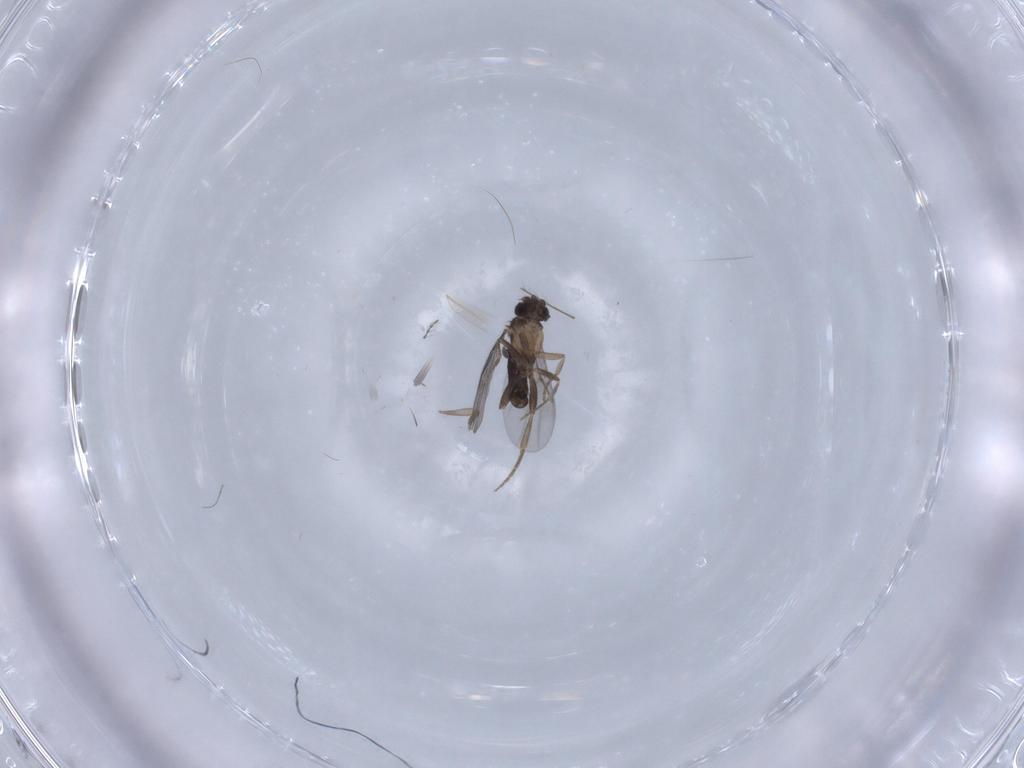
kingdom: Animalia
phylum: Arthropoda
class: Insecta
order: Diptera
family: Chironomidae
